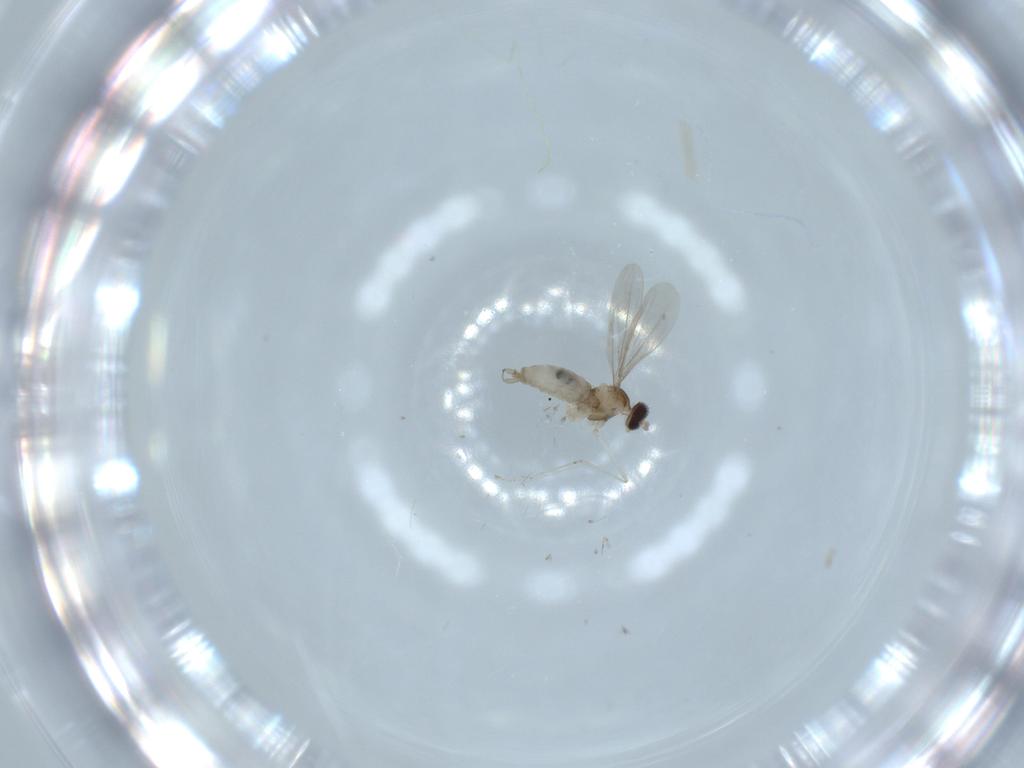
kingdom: Animalia
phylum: Arthropoda
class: Insecta
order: Diptera
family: Cecidomyiidae
